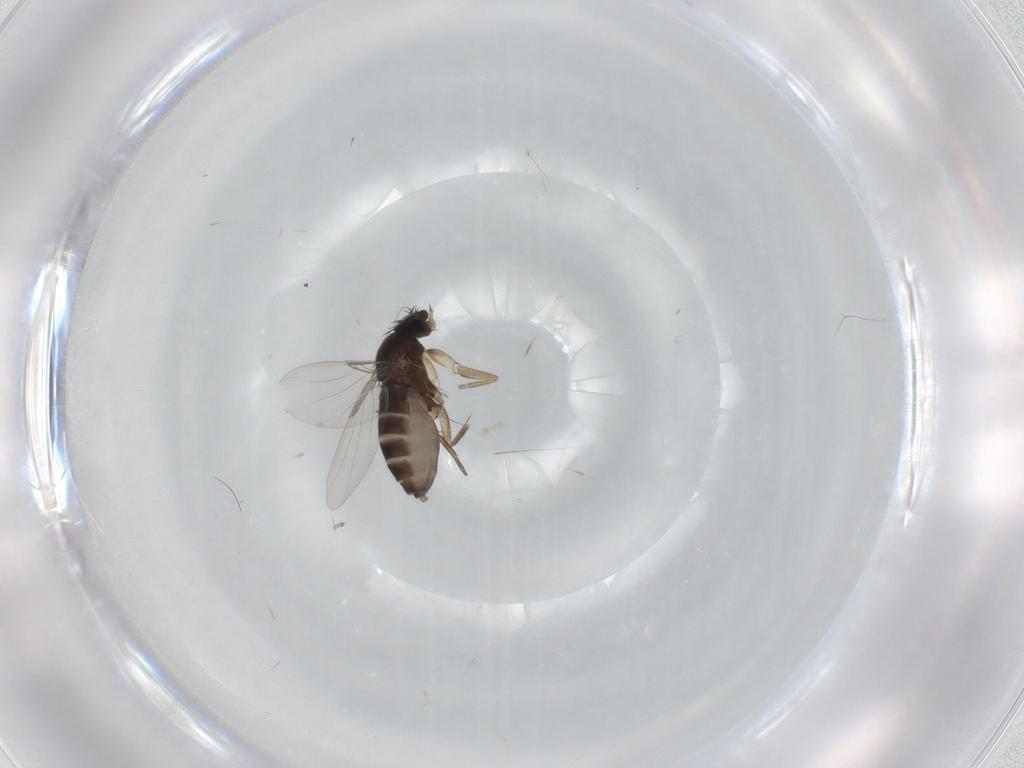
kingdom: Animalia
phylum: Arthropoda
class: Insecta
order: Diptera
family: Phoridae
